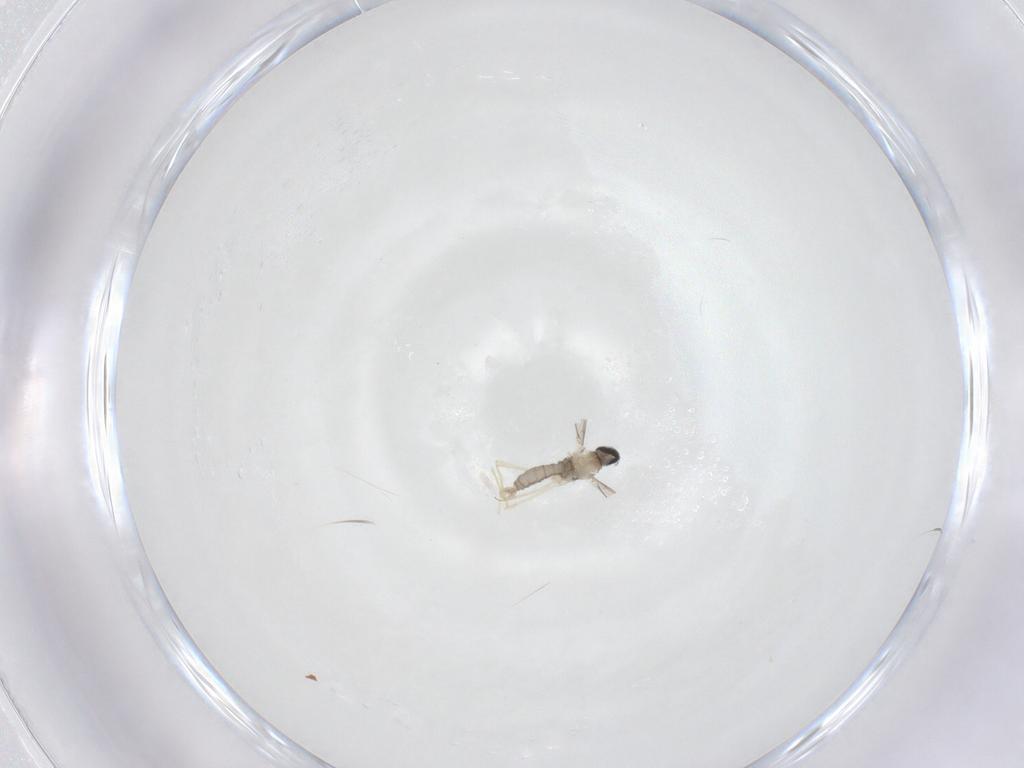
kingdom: Animalia
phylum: Arthropoda
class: Insecta
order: Diptera
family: Cecidomyiidae
